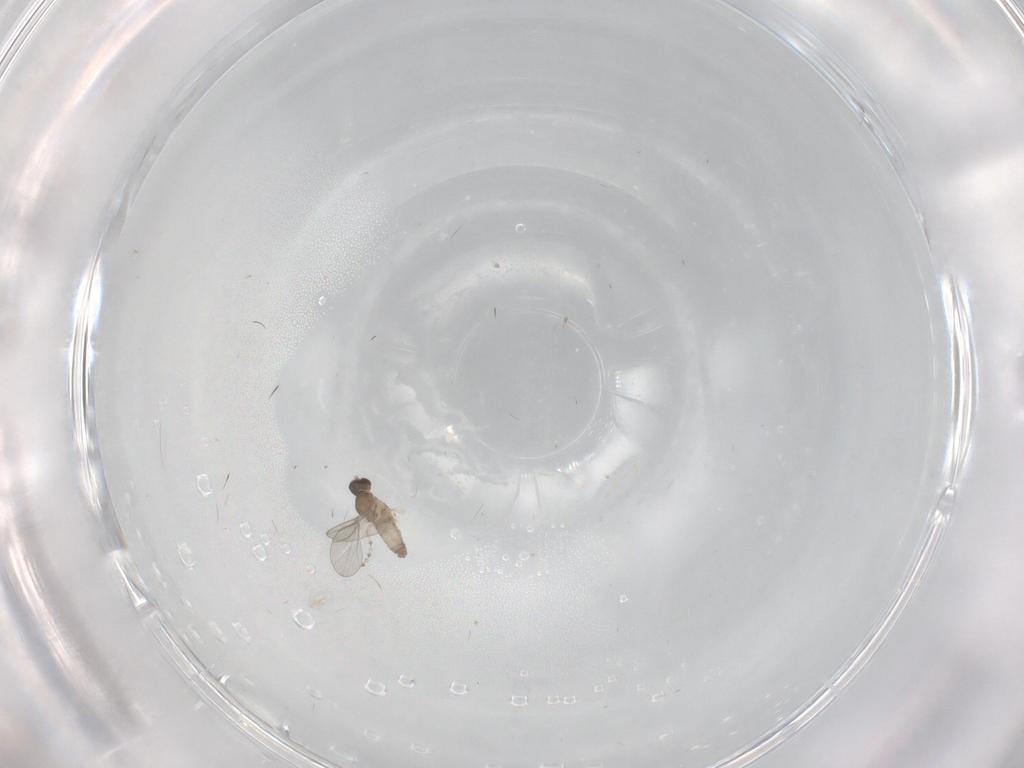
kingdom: Animalia
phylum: Arthropoda
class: Insecta
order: Diptera
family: Cecidomyiidae
